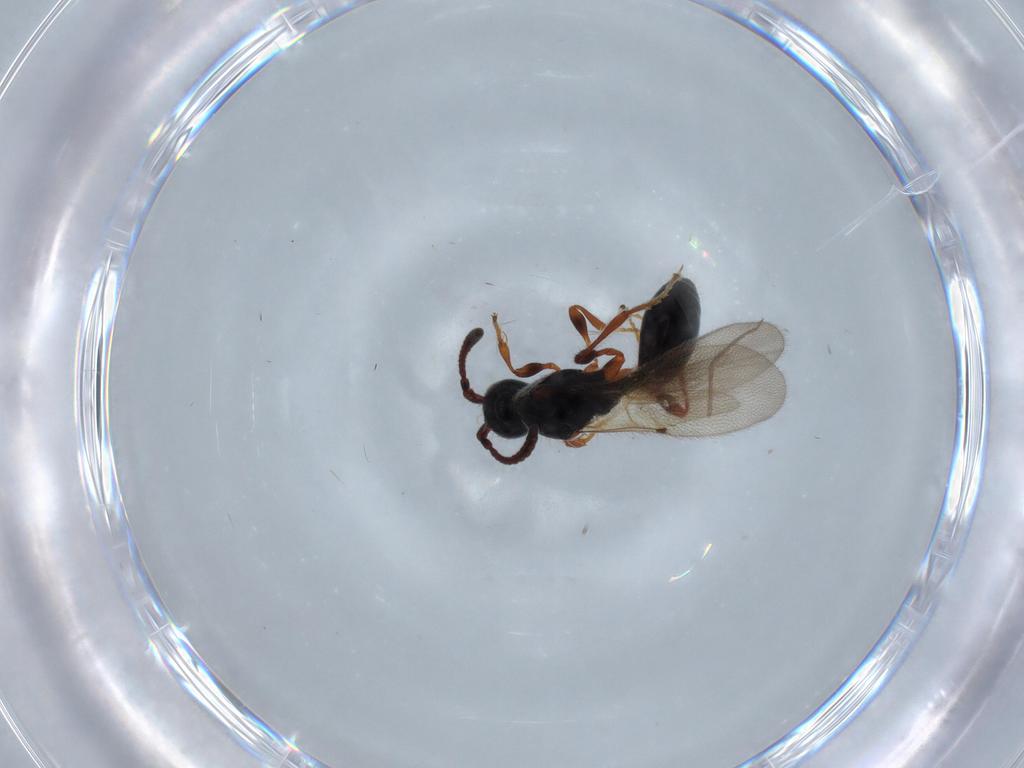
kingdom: Animalia
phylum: Arthropoda
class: Insecta
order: Hymenoptera
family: Diapriidae
